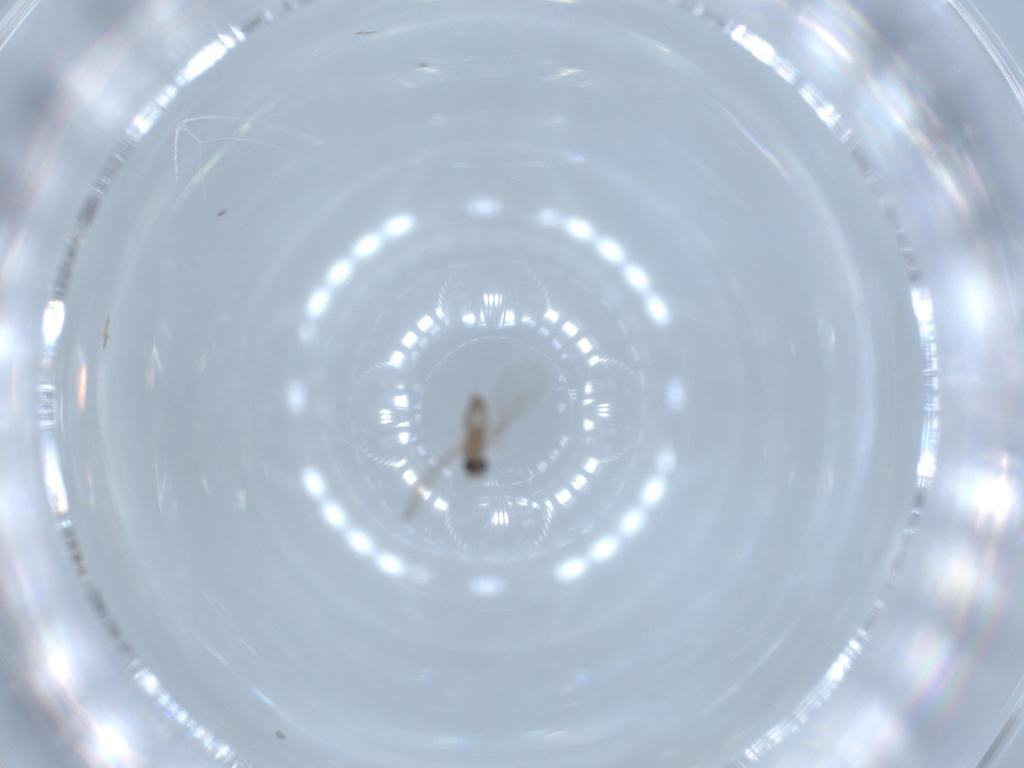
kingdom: Animalia
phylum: Arthropoda
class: Insecta
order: Diptera
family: Cecidomyiidae
